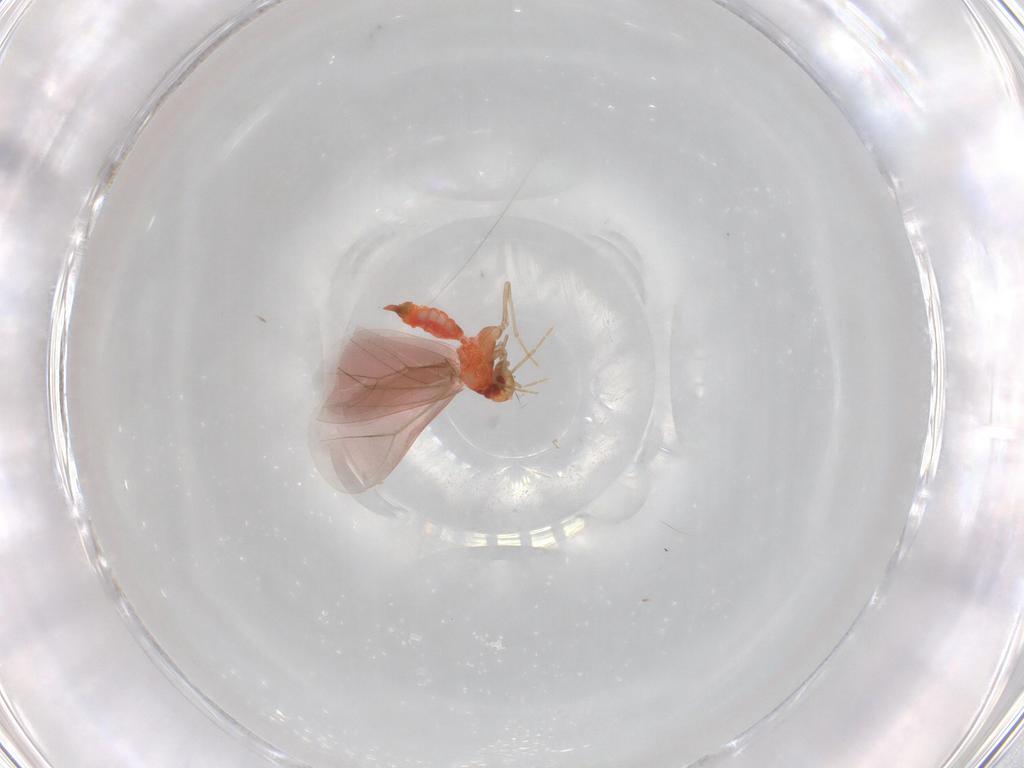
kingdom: Animalia
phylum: Arthropoda
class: Insecta
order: Hemiptera
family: Aleyrodidae
